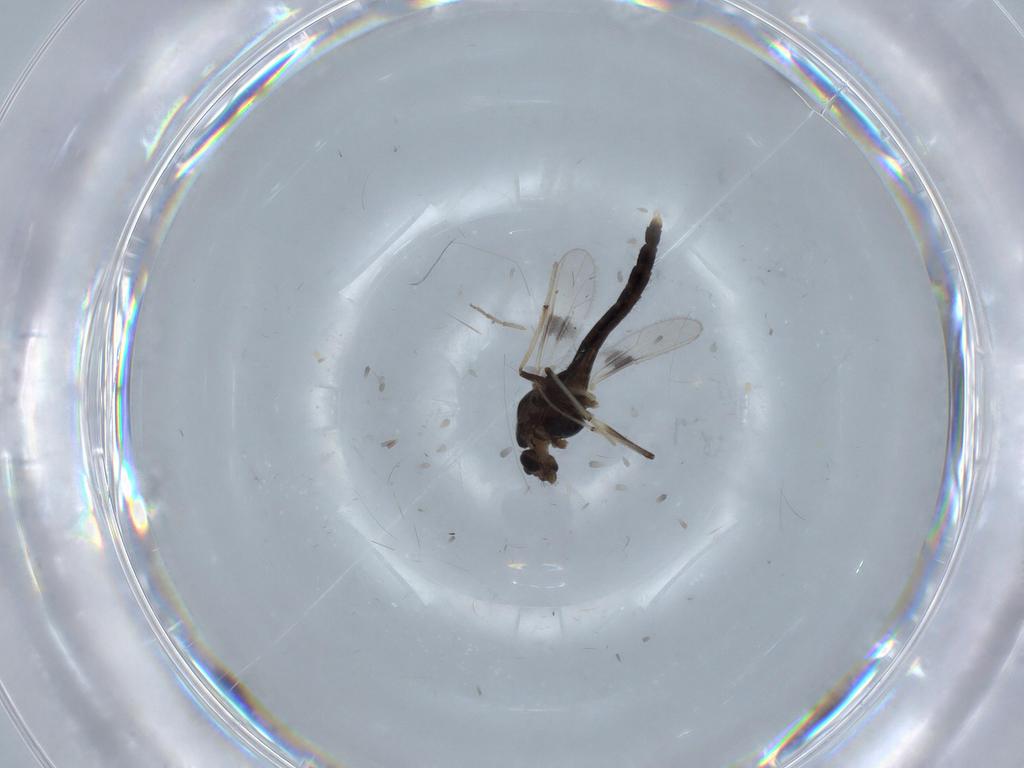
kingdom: Animalia
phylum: Arthropoda
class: Insecta
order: Diptera
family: Chironomidae
